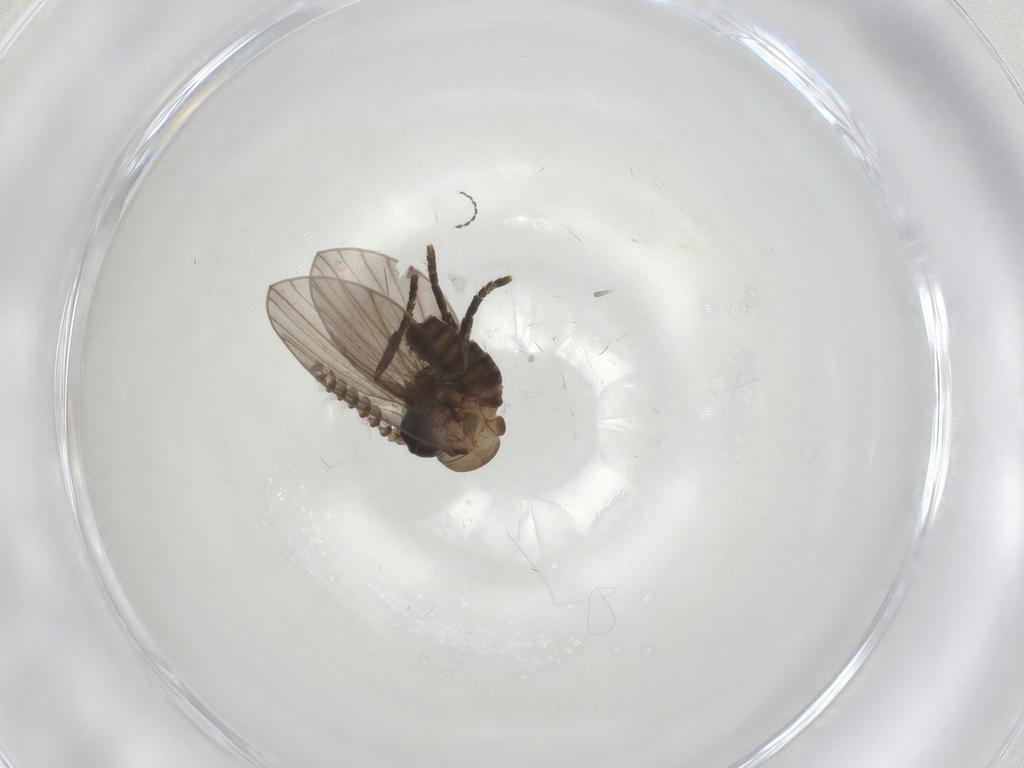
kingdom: Animalia
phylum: Arthropoda
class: Insecta
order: Diptera
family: Psychodidae
